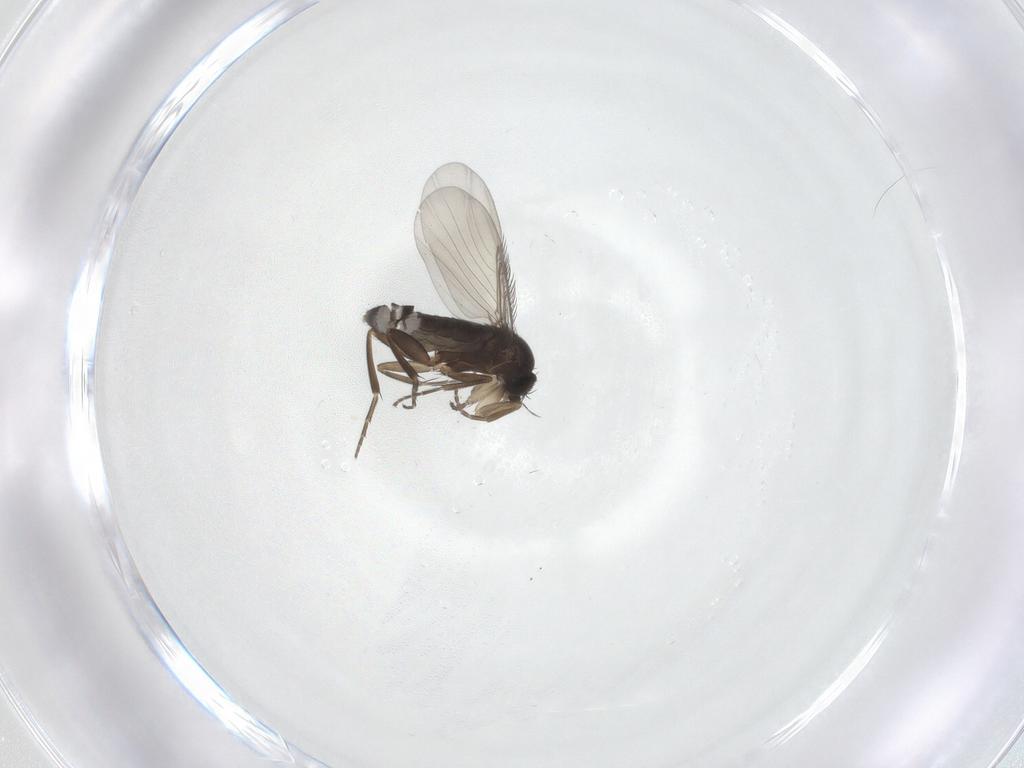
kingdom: Animalia
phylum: Arthropoda
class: Insecta
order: Diptera
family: Phoridae
